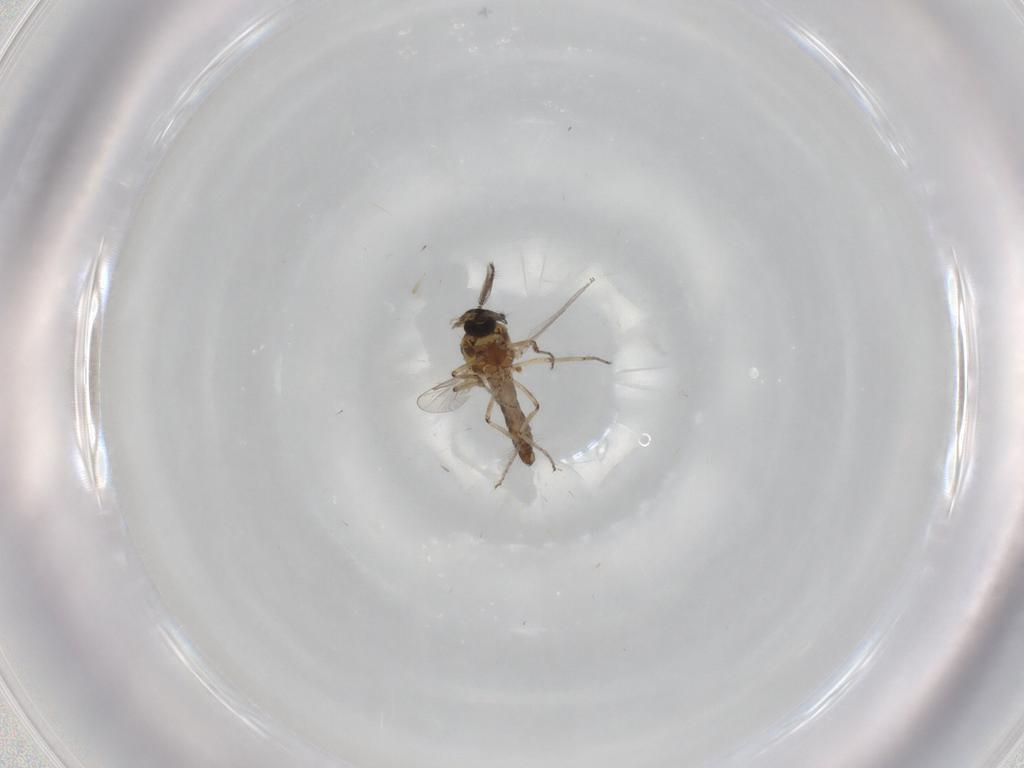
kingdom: Animalia
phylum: Arthropoda
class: Insecta
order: Diptera
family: Ceratopogonidae
